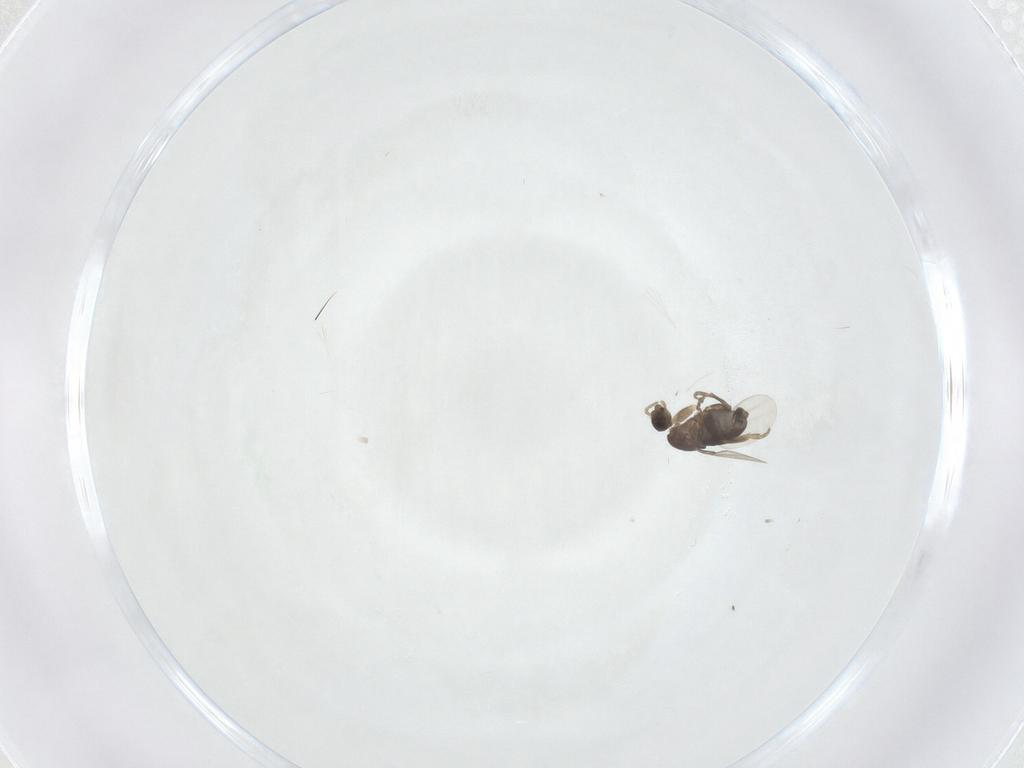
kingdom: Animalia
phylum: Arthropoda
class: Insecta
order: Diptera
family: Phoridae
